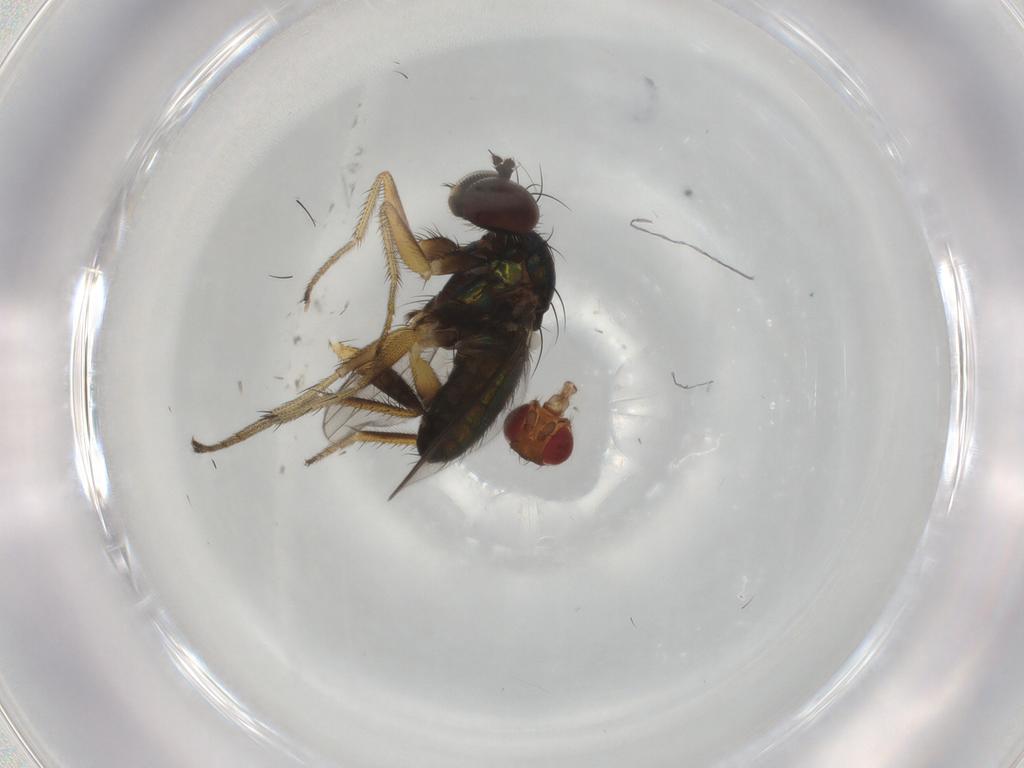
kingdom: Animalia
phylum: Arthropoda
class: Insecta
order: Diptera
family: Dolichopodidae
